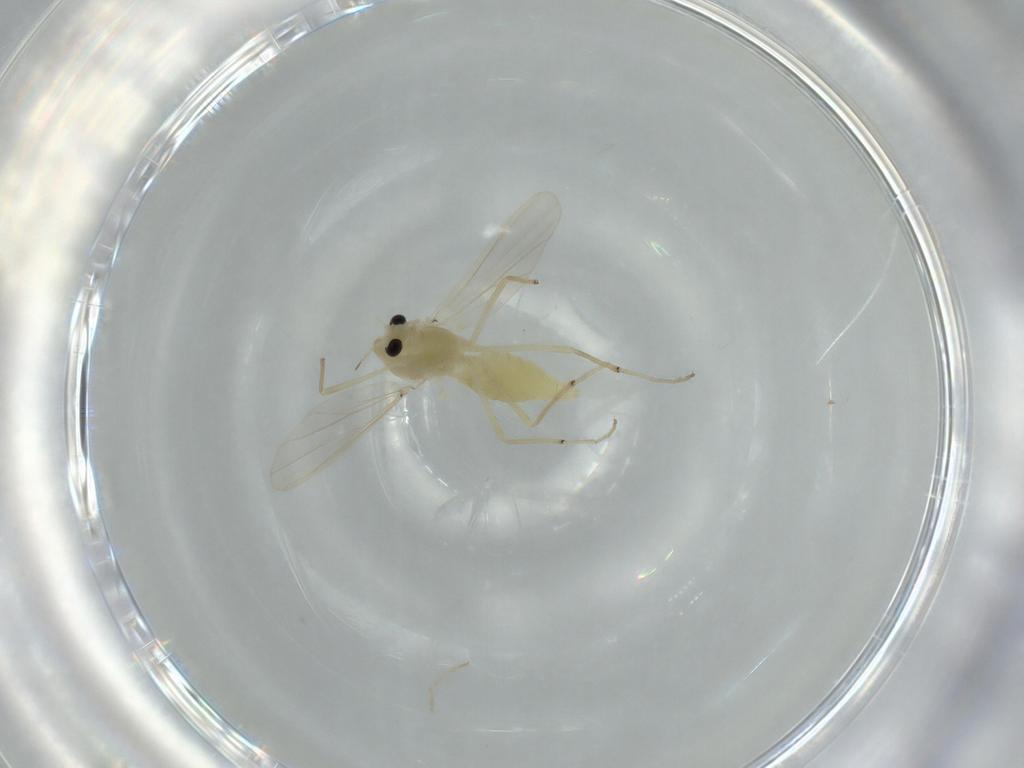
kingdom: Animalia
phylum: Arthropoda
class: Insecta
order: Diptera
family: Chironomidae
